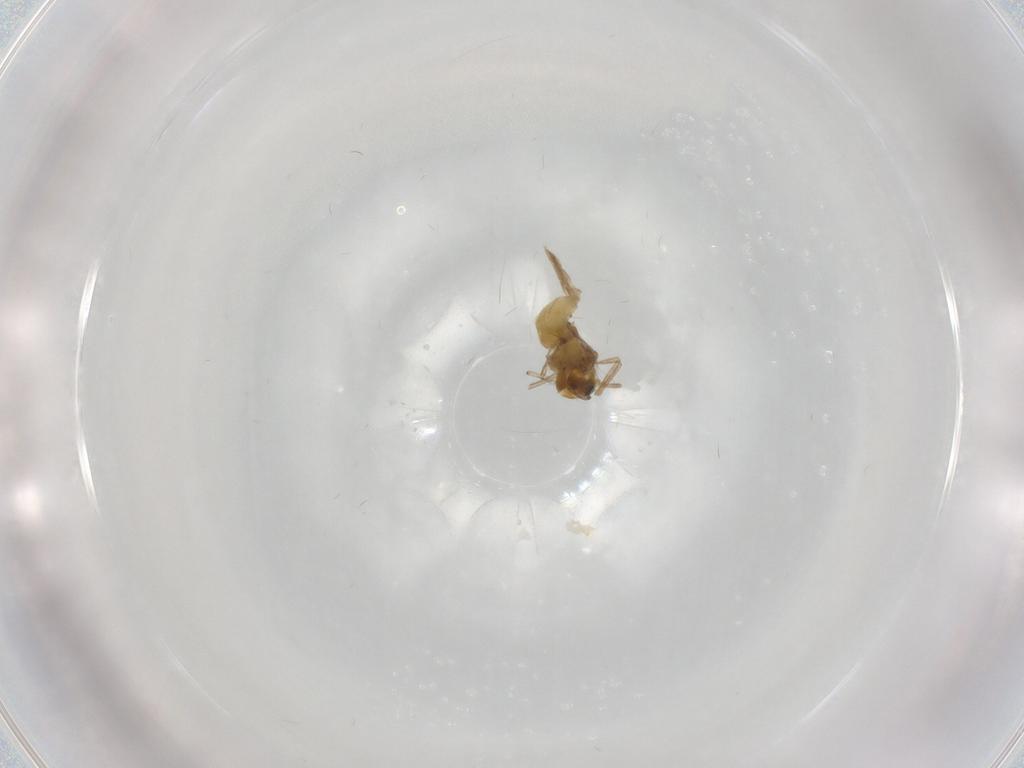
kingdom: Animalia
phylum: Arthropoda
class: Insecta
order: Diptera
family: Chironomidae
